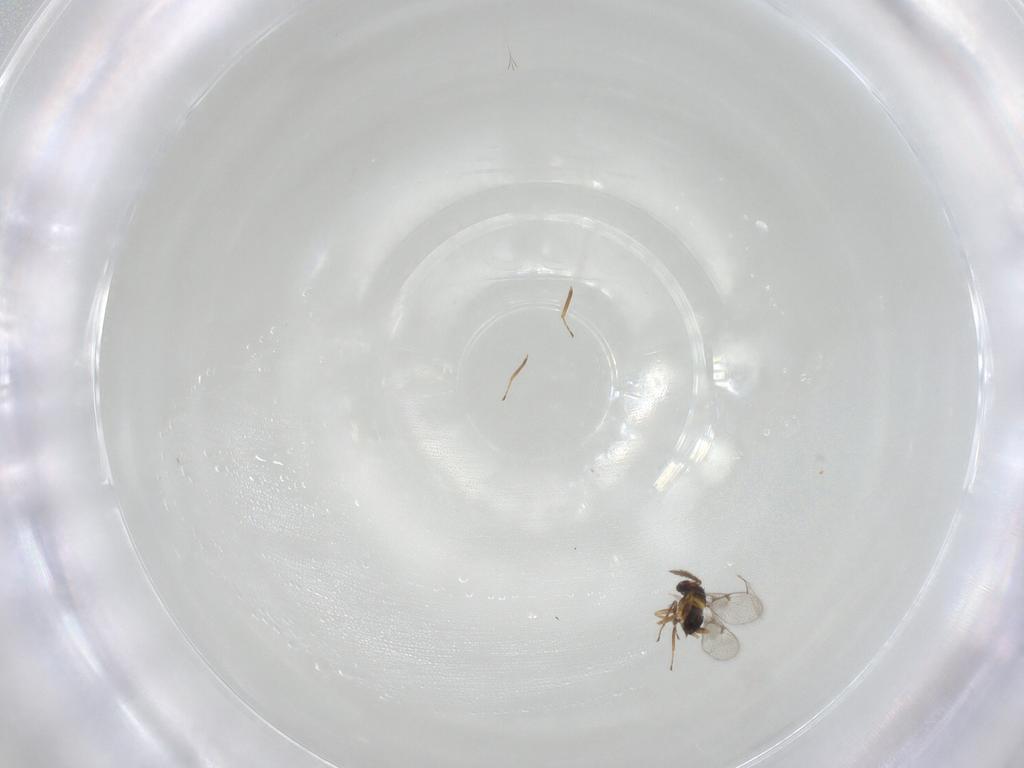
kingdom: Animalia
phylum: Arthropoda
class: Insecta
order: Hymenoptera
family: Trichogrammatidae
